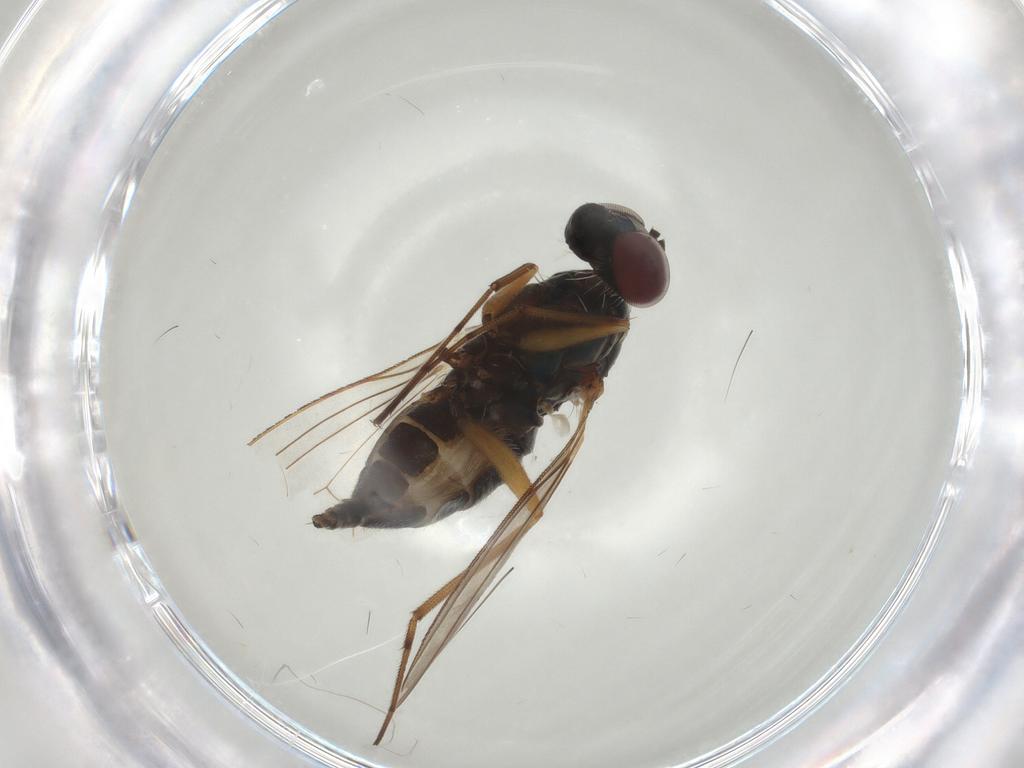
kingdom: Animalia
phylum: Arthropoda
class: Insecta
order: Diptera
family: Dolichopodidae
